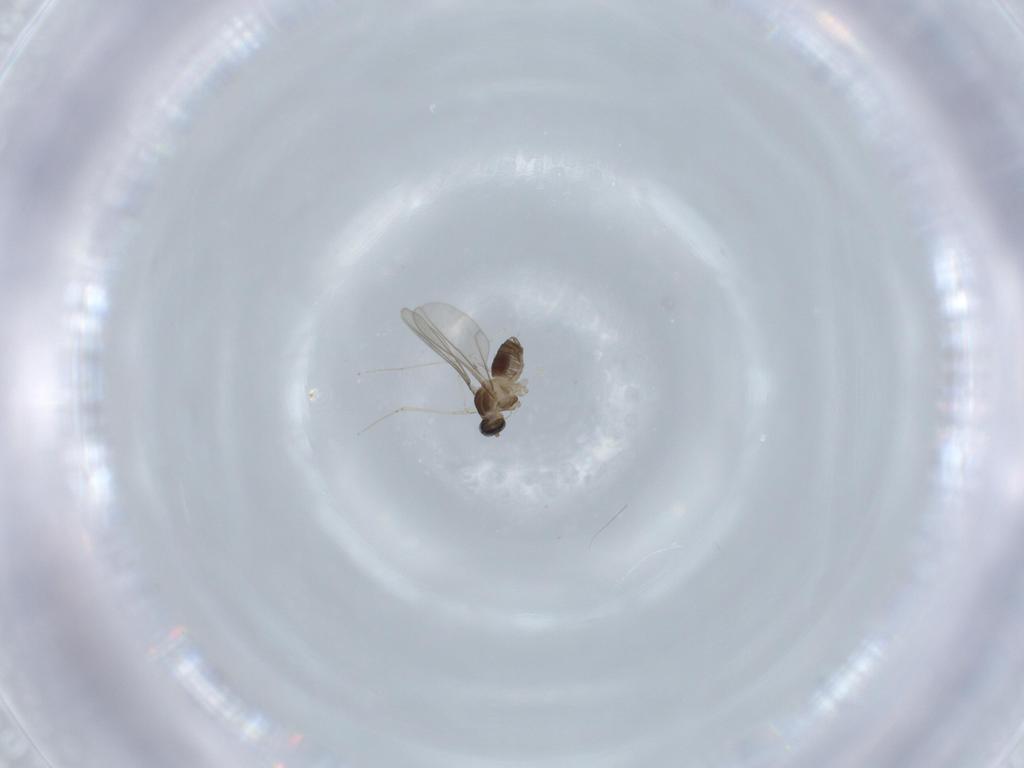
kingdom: Animalia
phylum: Arthropoda
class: Insecta
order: Diptera
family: Cecidomyiidae
